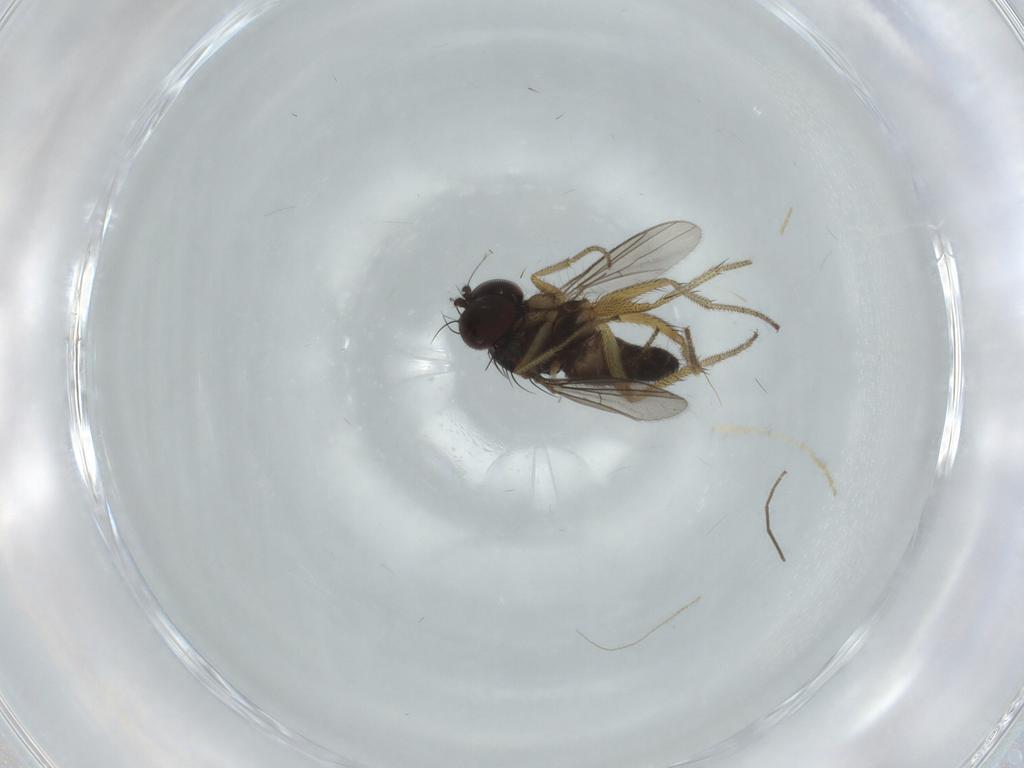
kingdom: Animalia
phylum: Arthropoda
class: Insecta
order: Diptera
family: Dolichopodidae
